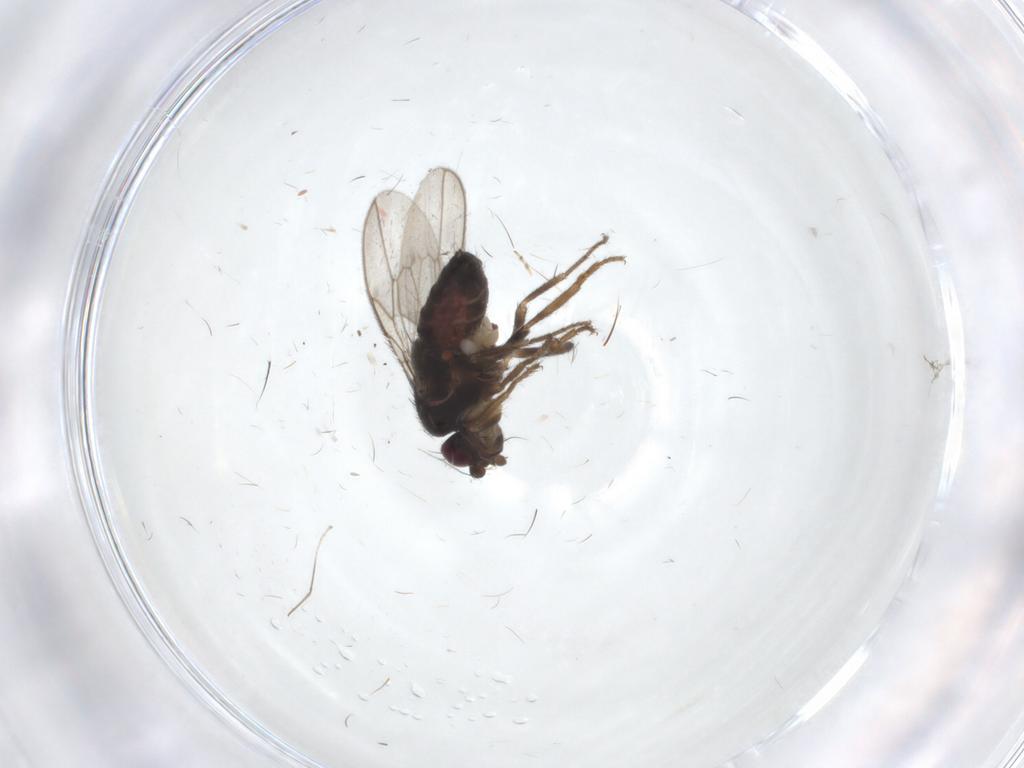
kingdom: Animalia
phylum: Arthropoda
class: Insecta
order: Diptera
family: Sphaeroceridae
